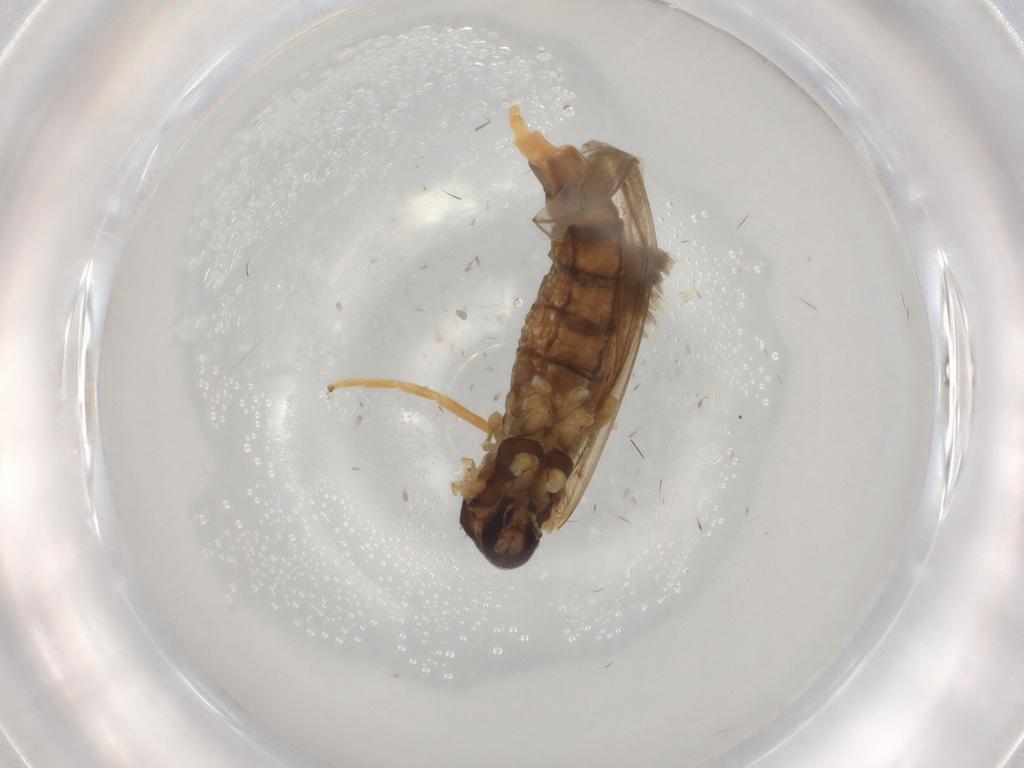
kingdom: Animalia
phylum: Arthropoda
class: Insecta
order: Diptera
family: Cecidomyiidae
